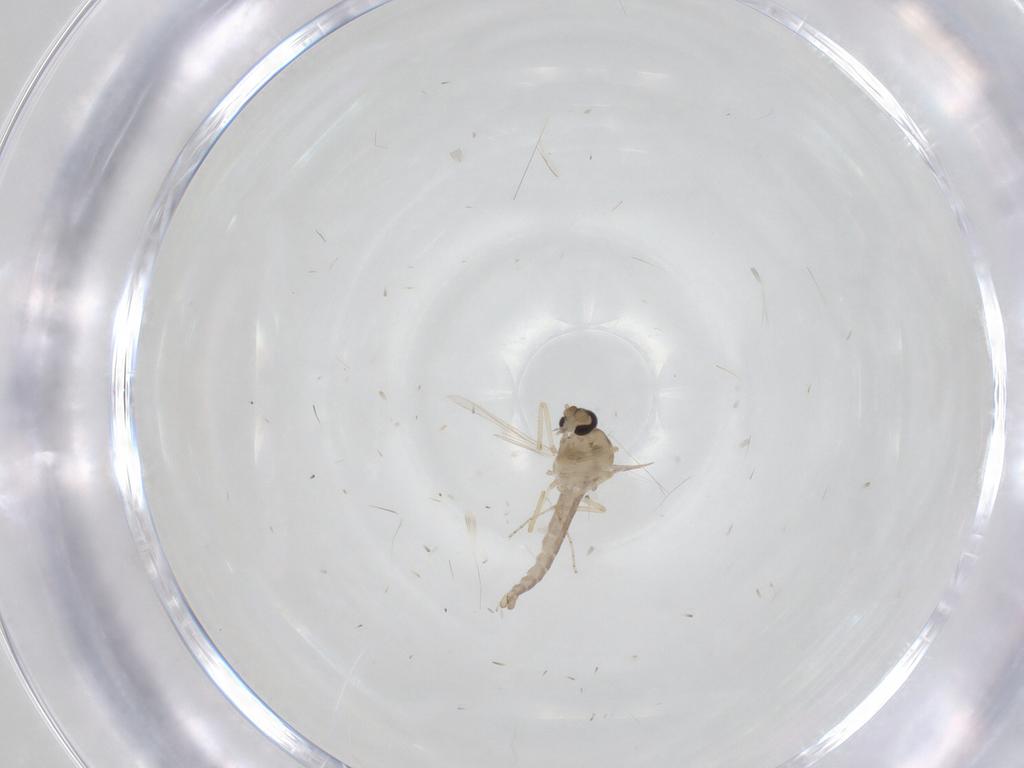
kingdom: Animalia
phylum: Arthropoda
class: Insecta
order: Diptera
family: Ceratopogonidae
